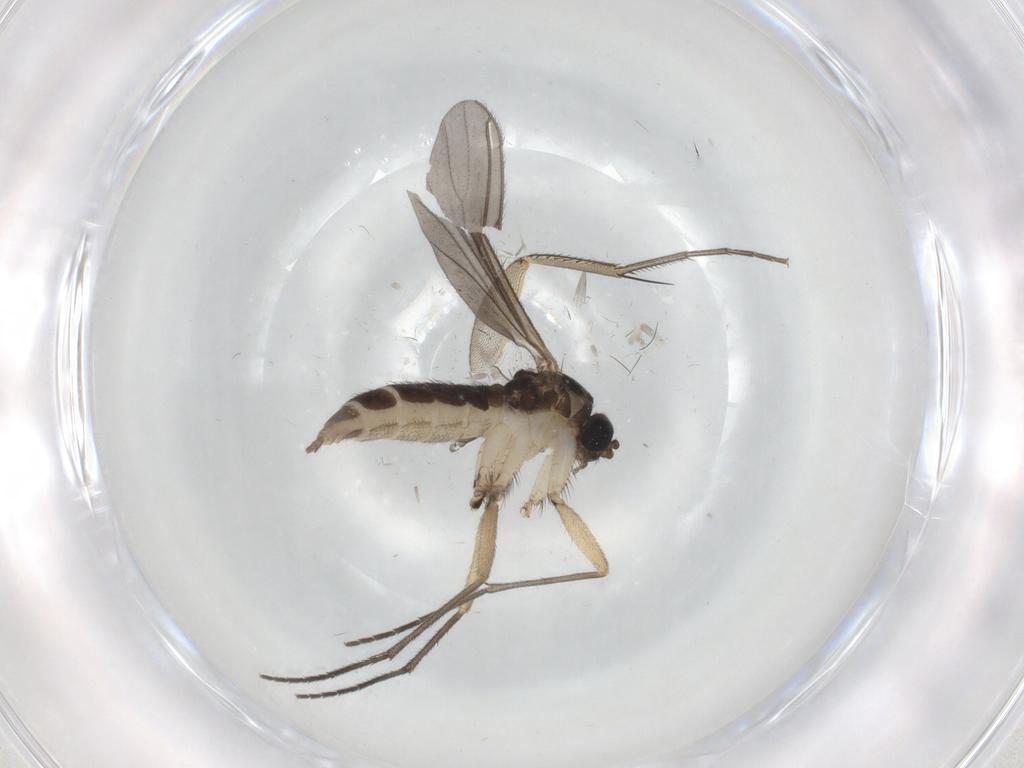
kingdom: Animalia
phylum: Arthropoda
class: Insecta
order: Diptera
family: Sciaridae
